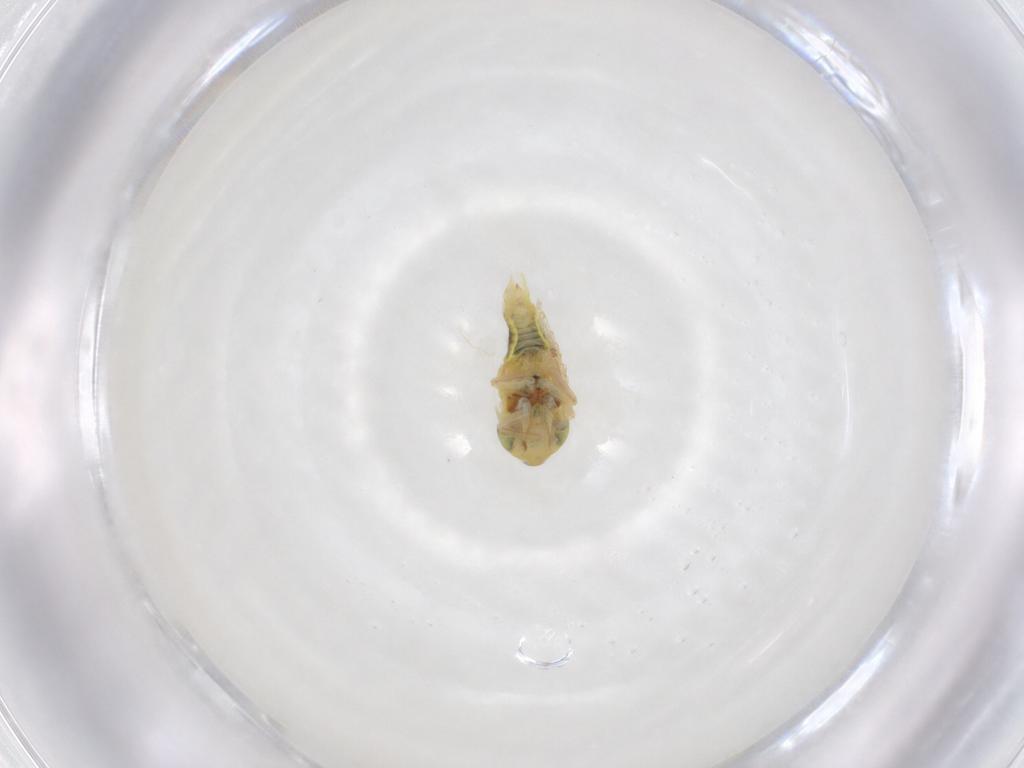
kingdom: Animalia
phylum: Arthropoda
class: Insecta
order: Hemiptera
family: Cicadellidae
